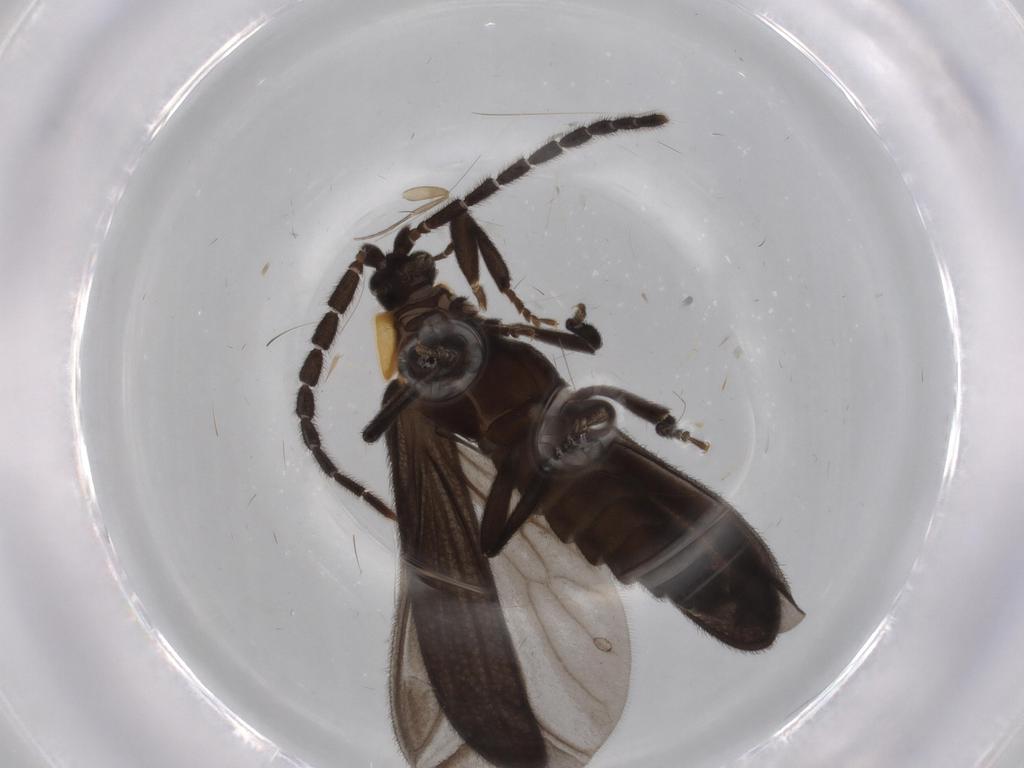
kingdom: Animalia
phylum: Arthropoda
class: Insecta
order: Coleoptera
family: Lycidae
